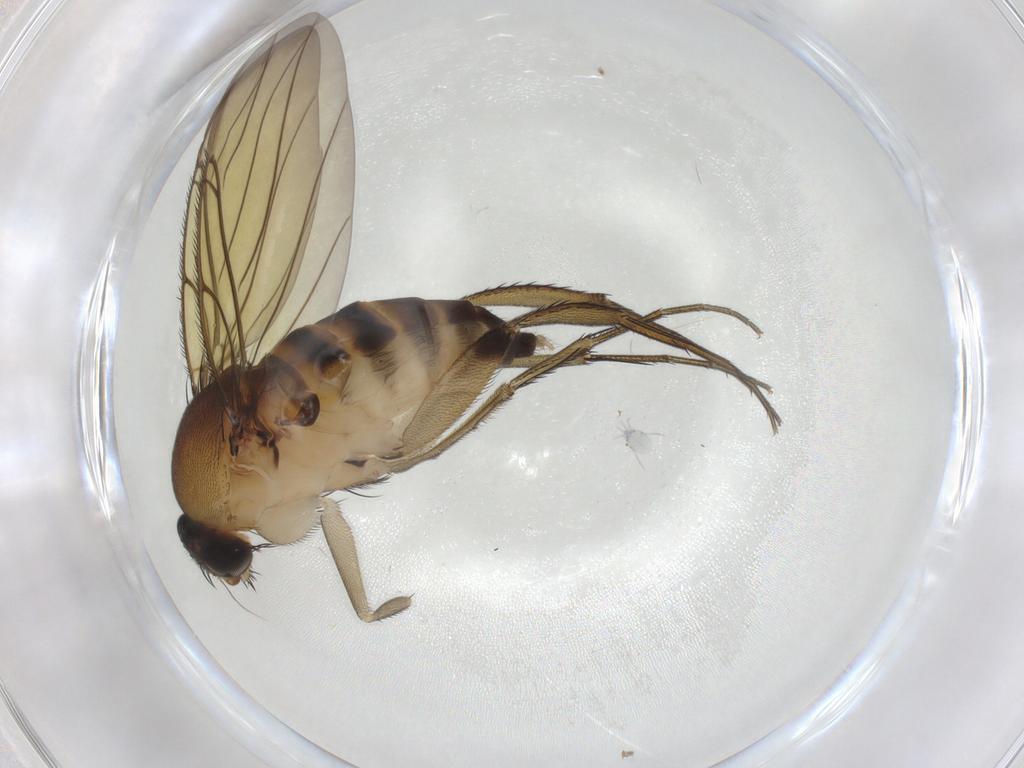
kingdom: Animalia
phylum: Arthropoda
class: Insecta
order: Diptera
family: Phoridae
